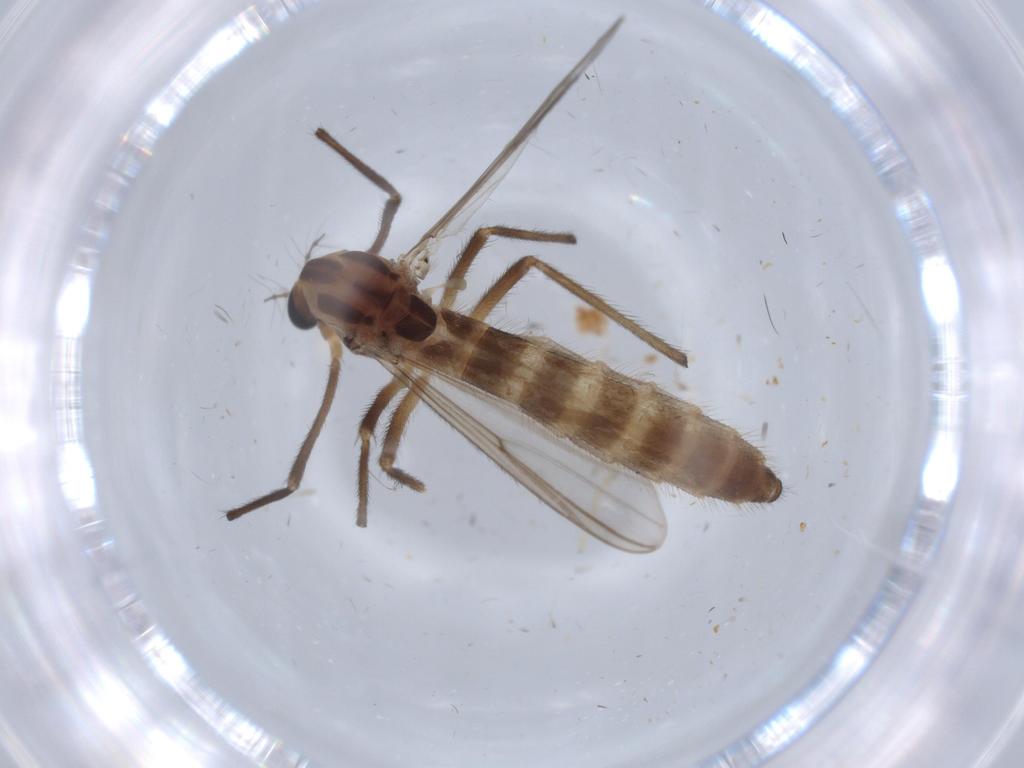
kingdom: Animalia
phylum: Arthropoda
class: Insecta
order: Diptera
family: Chironomidae
